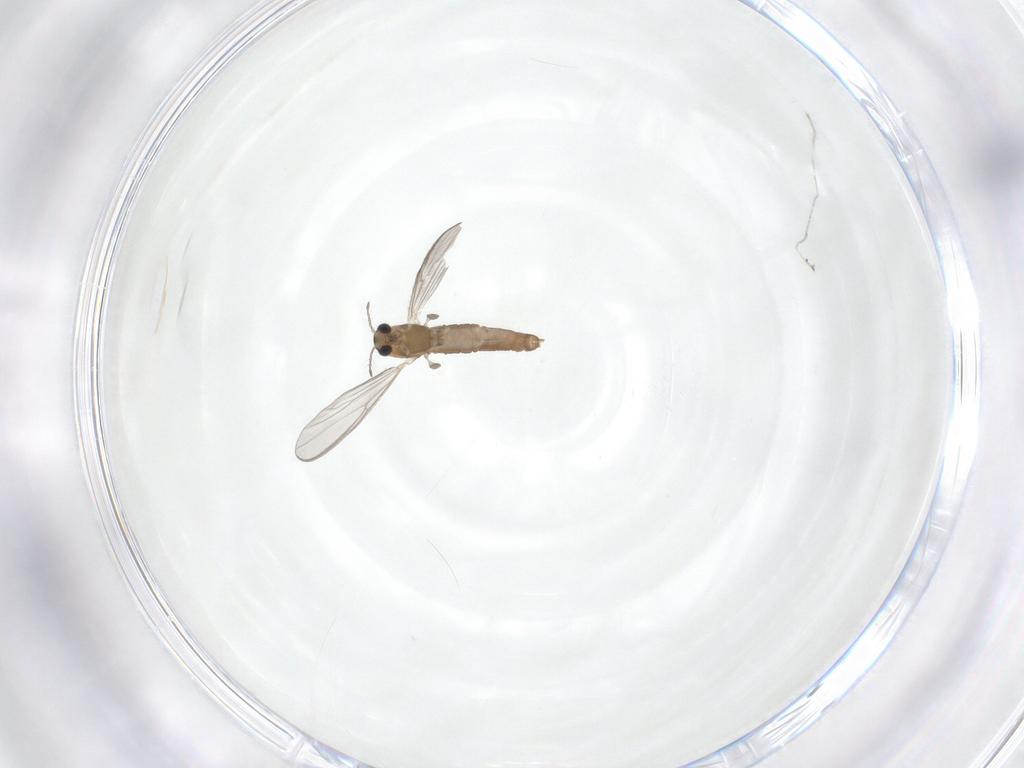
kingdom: Animalia
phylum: Arthropoda
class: Insecta
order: Diptera
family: Chironomidae
